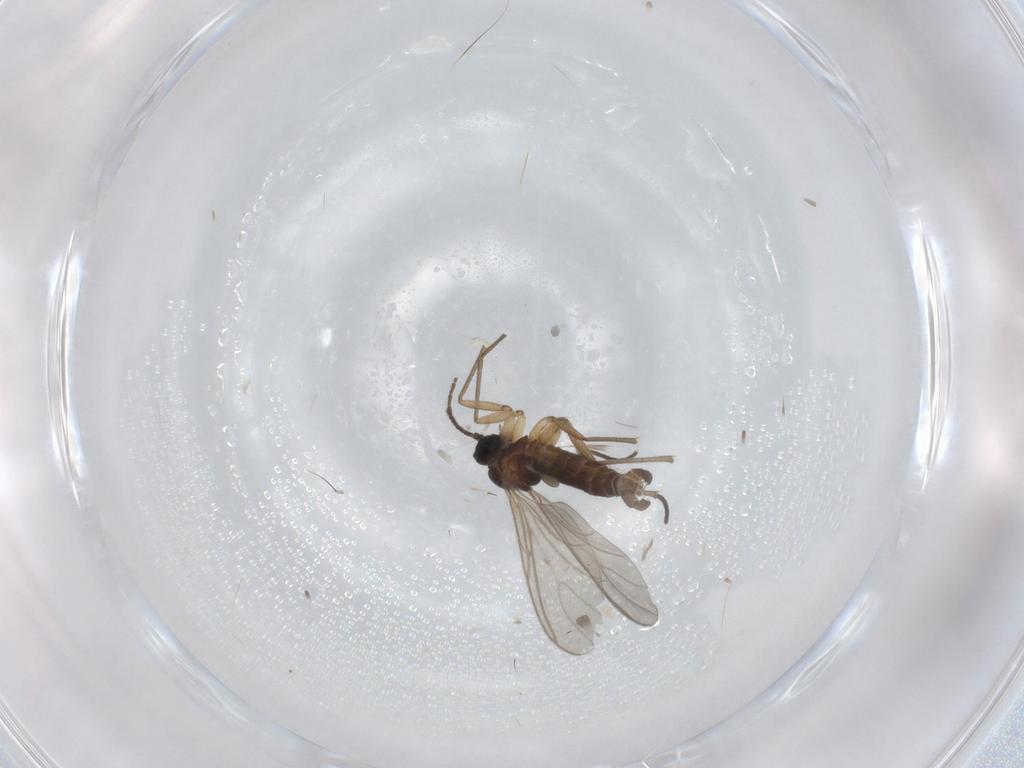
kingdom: Animalia
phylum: Arthropoda
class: Insecta
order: Diptera
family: Sciaridae
